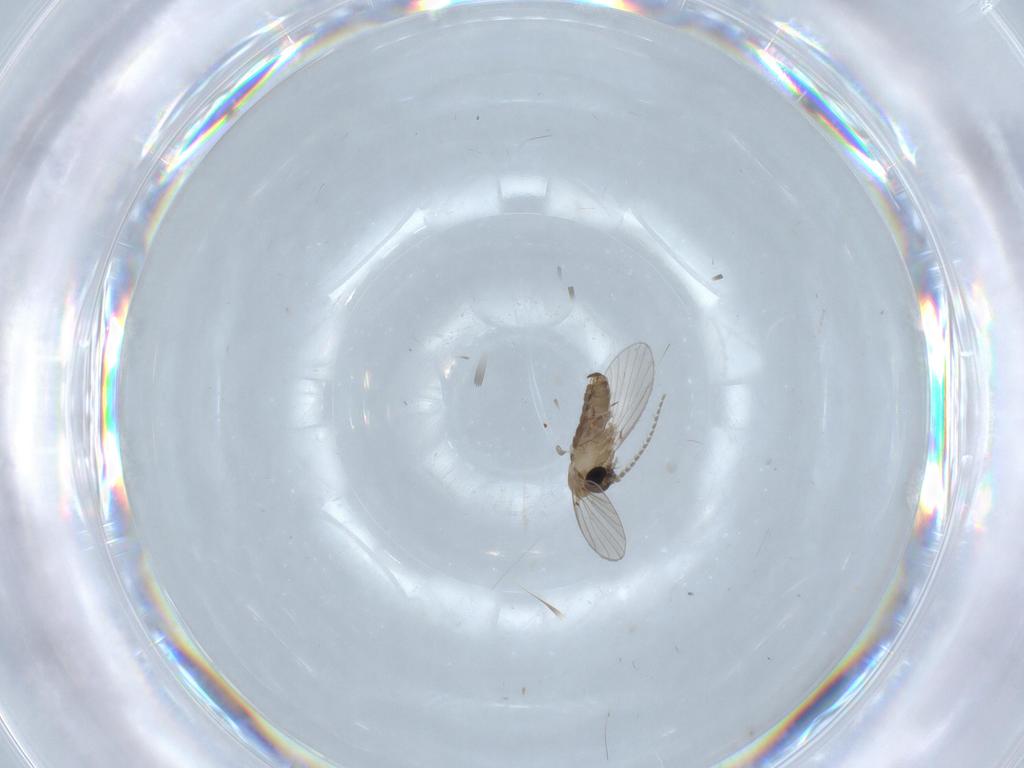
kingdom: Animalia
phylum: Arthropoda
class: Insecta
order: Diptera
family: Psychodidae
